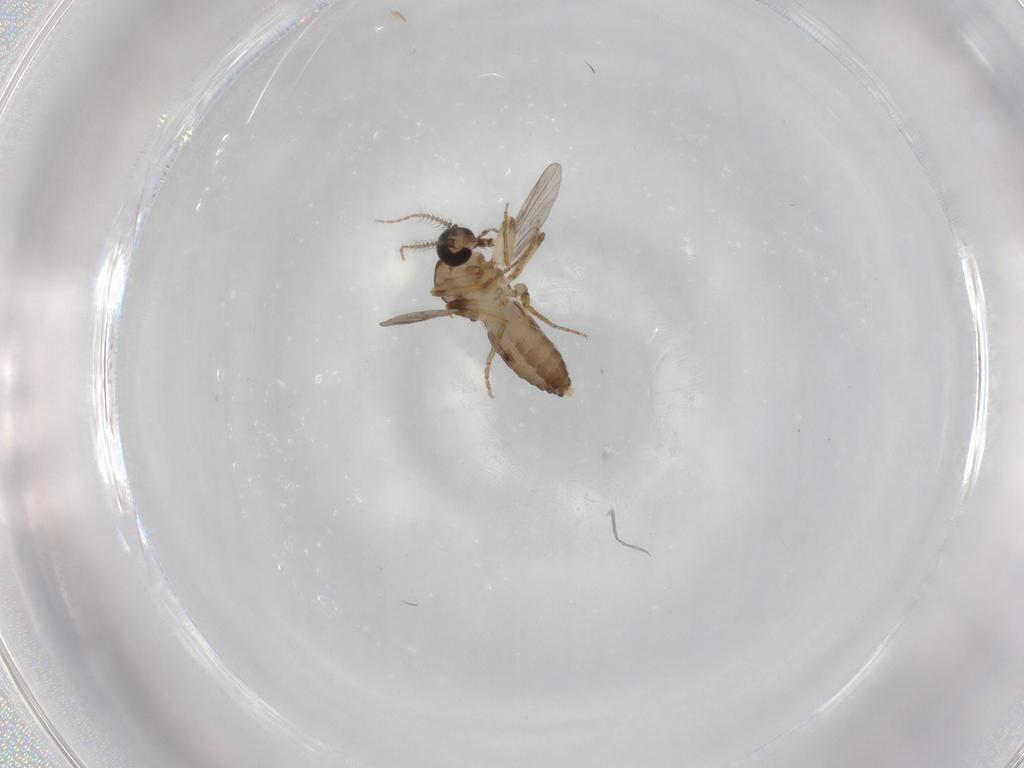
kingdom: Animalia
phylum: Arthropoda
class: Insecta
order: Diptera
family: Ceratopogonidae
